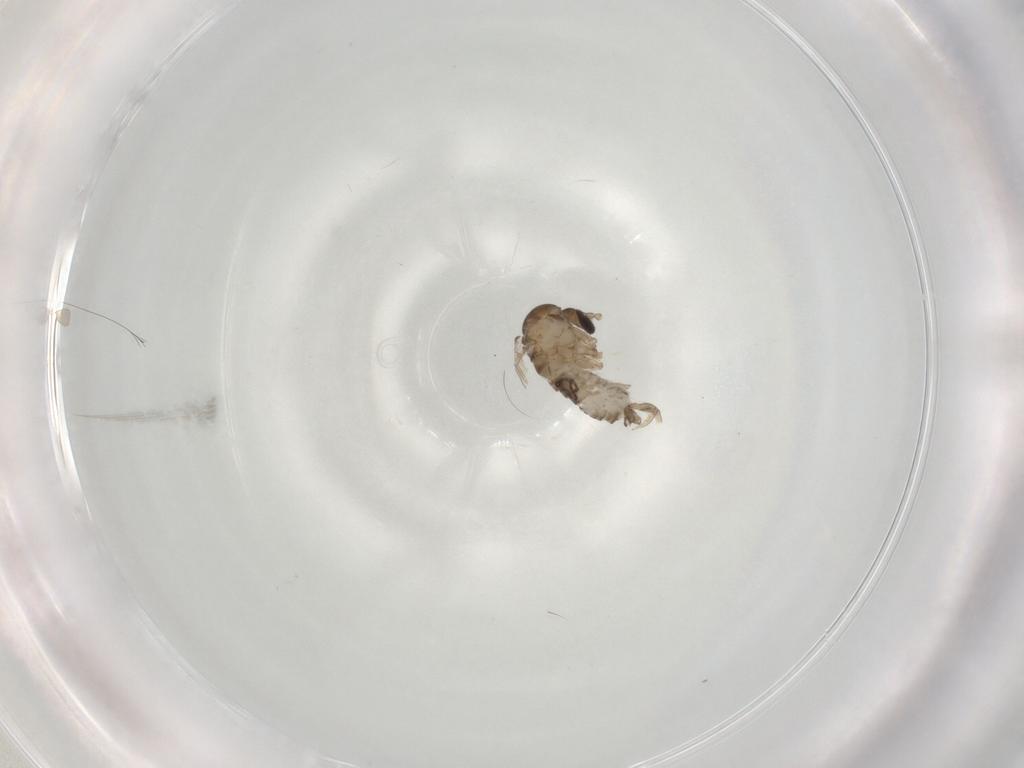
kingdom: Animalia
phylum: Arthropoda
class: Insecta
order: Diptera
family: Psychodidae
